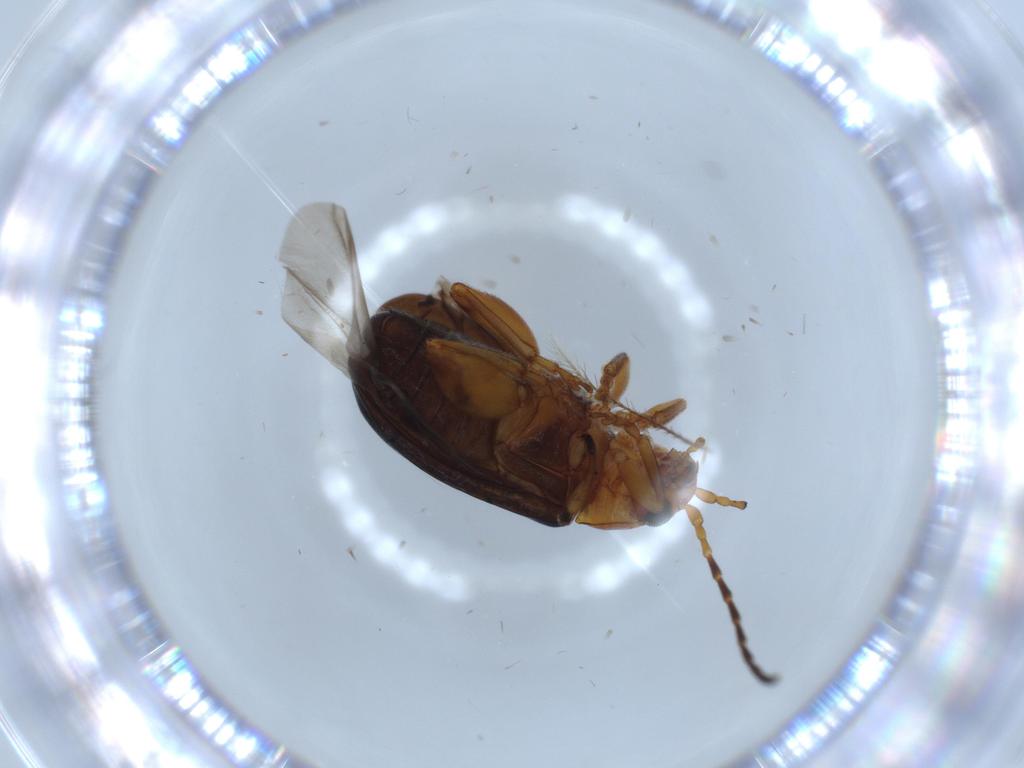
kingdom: Animalia
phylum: Arthropoda
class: Insecta
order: Coleoptera
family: Chrysomelidae
